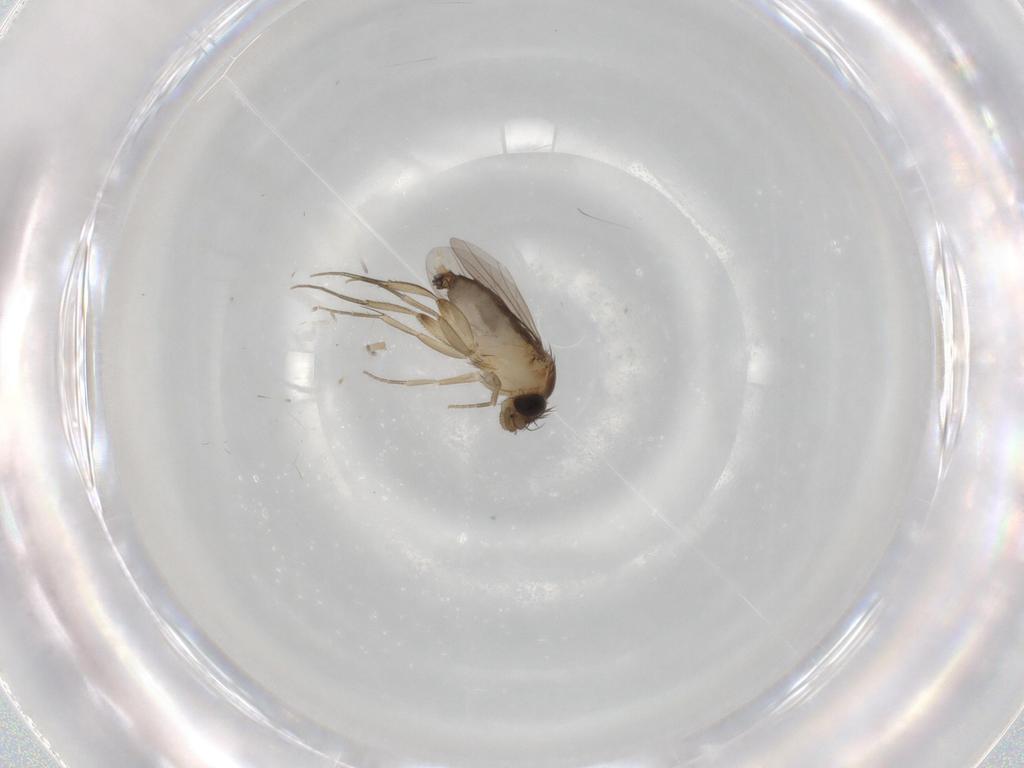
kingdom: Animalia
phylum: Arthropoda
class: Insecta
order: Diptera
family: Phoridae
